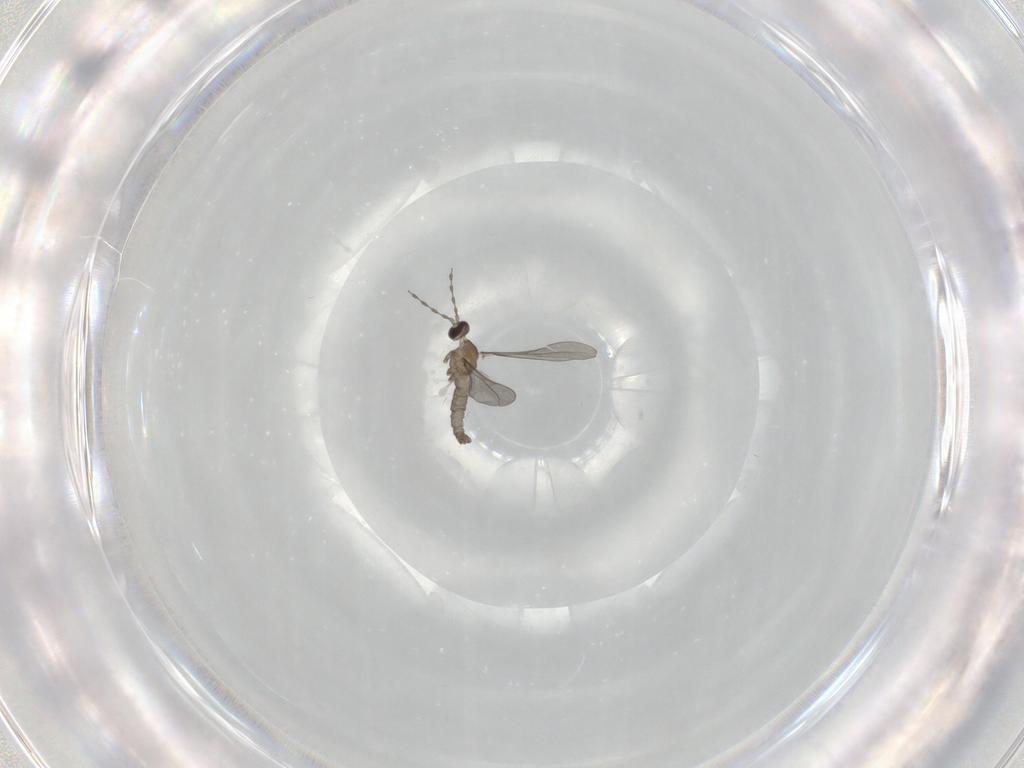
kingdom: Animalia
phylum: Arthropoda
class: Insecta
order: Diptera
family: Cecidomyiidae
